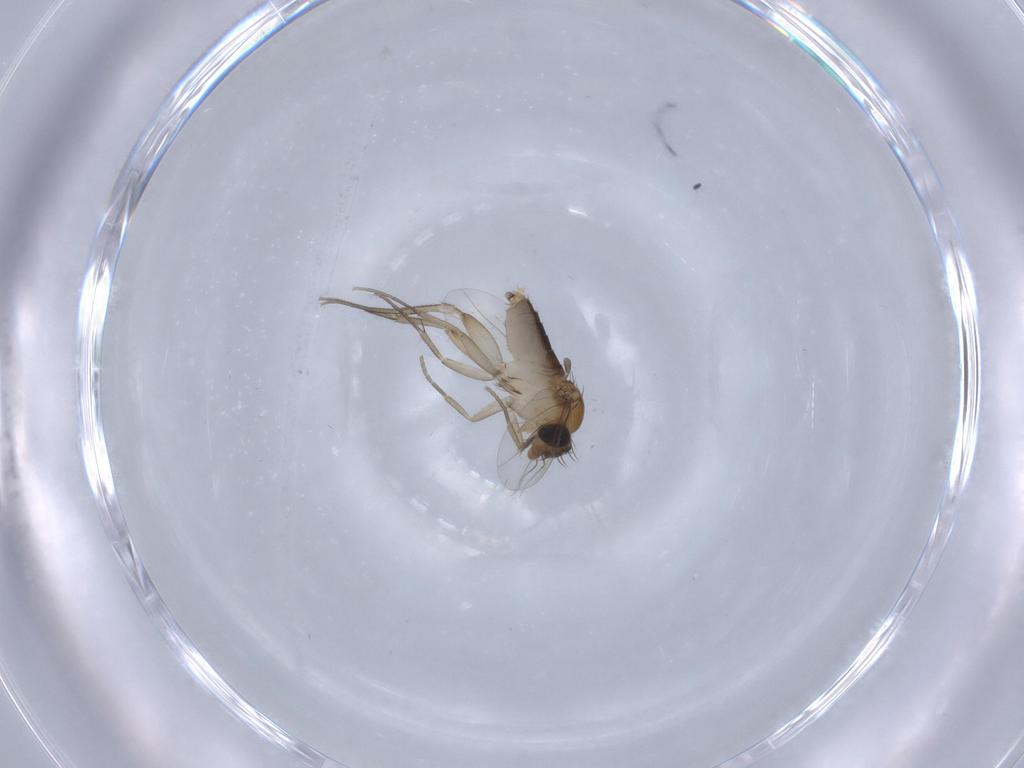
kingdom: Animalia
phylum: Arthropoda
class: Insecta
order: Diptera
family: Phoridae
